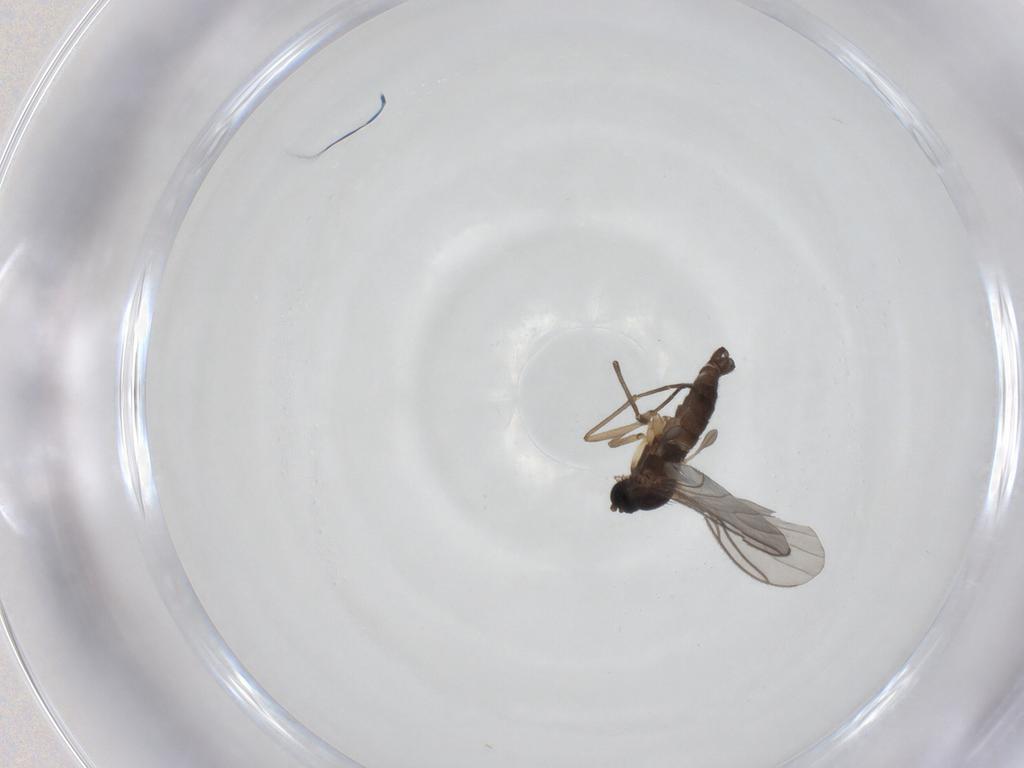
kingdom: Animalia
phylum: Arthropoda
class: Insecta
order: Diptera
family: Sciaridae
